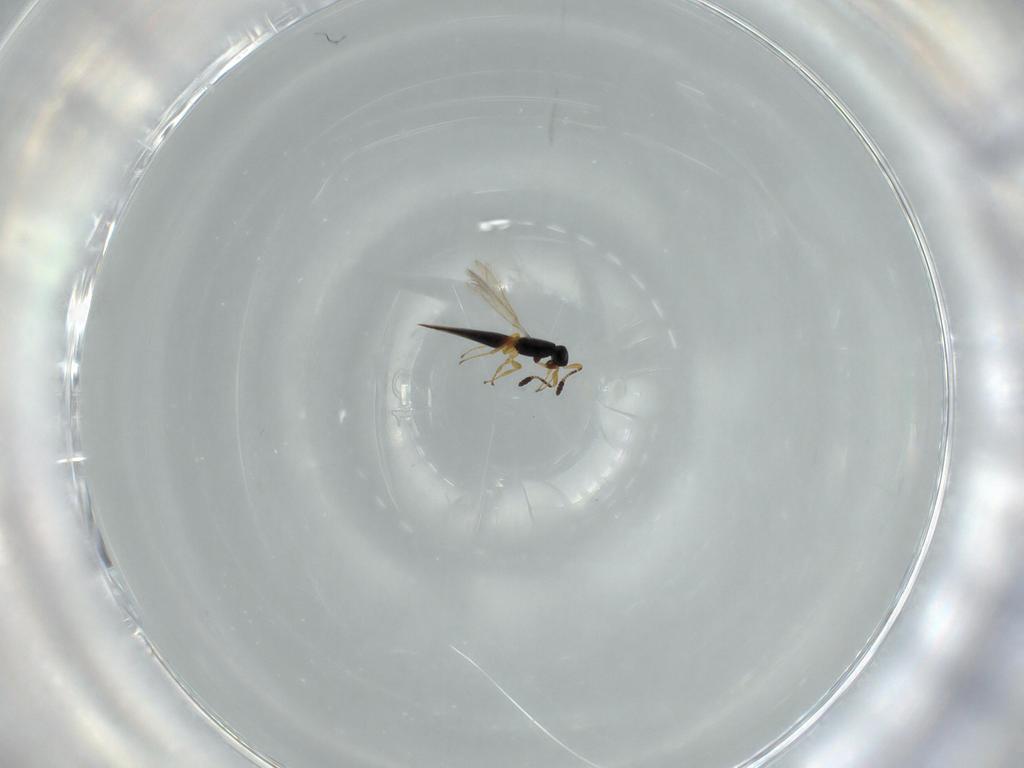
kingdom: Animalia
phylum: Arthropoda
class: Insecta
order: Hymenoptera
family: Scelionidae
